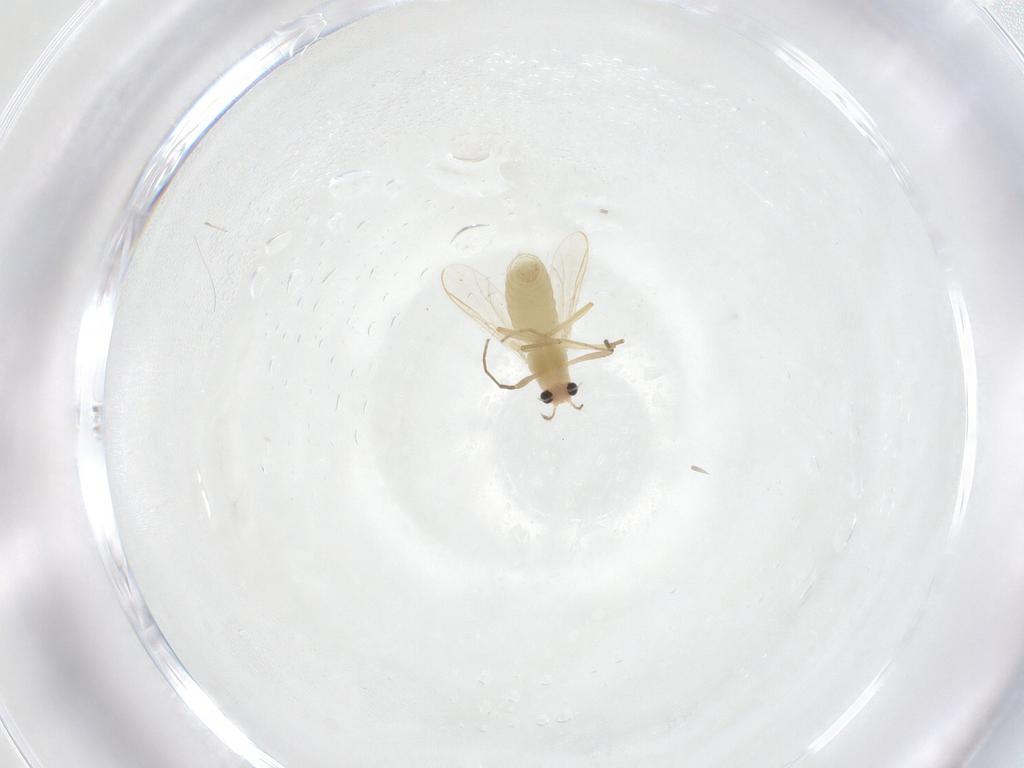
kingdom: Animalia
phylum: Arthropoda
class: Insecta
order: Diptera
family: Chironomidae
